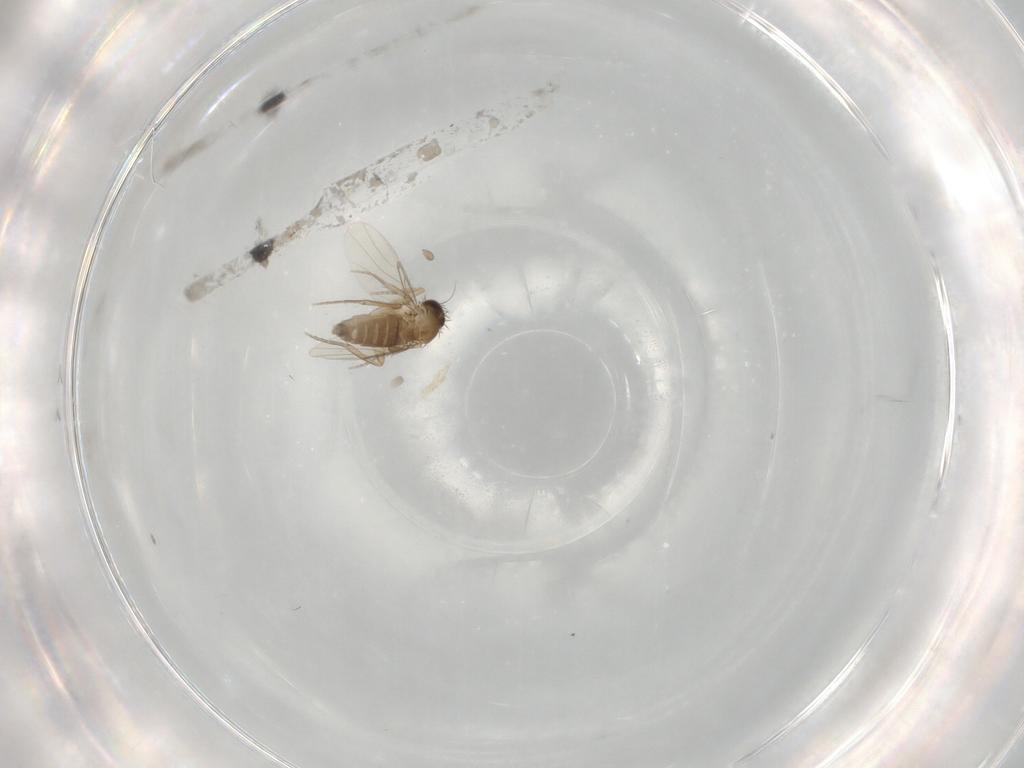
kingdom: Animalia
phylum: Arthropoda
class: Insecta
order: Diptera
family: Phoridae
